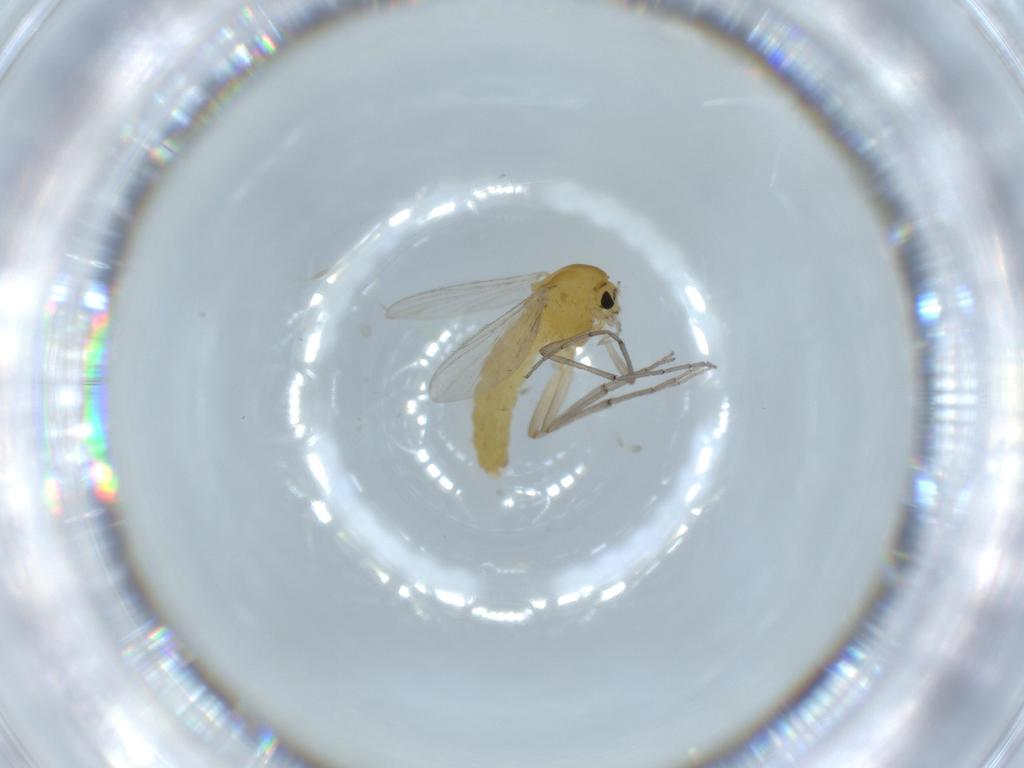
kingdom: Animalia
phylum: Arthropoda
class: Insecta
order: Diptera
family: Chironomidae
